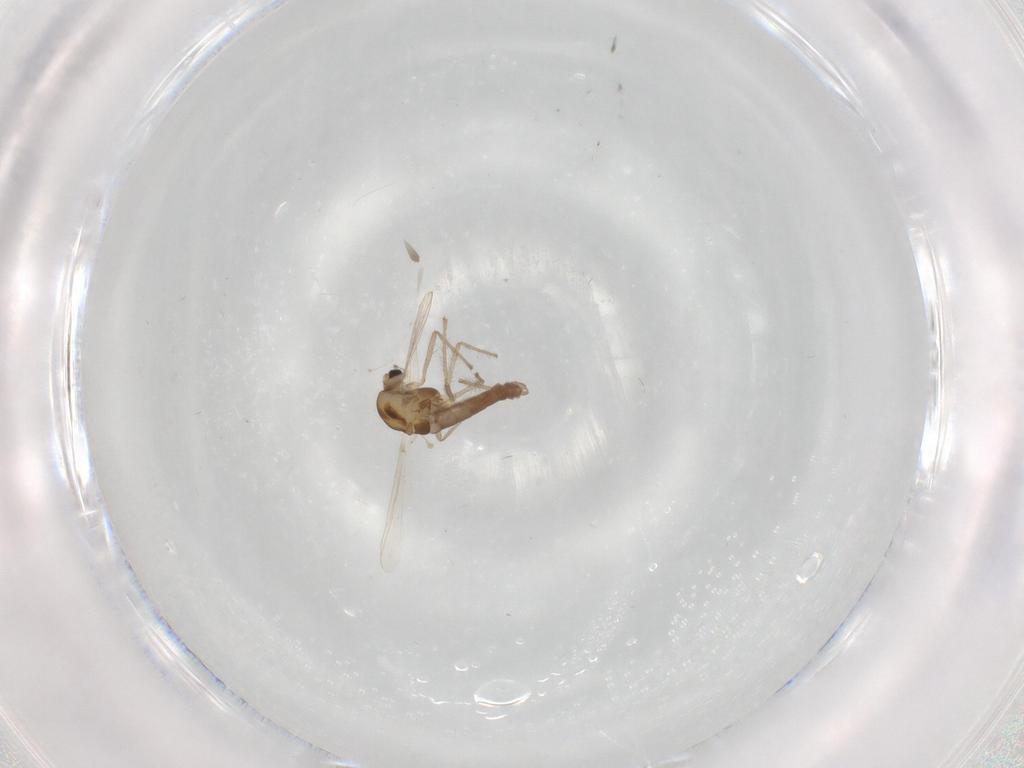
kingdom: Animalia
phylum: Arthropoda
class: Insecta
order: Diptera
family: Chironomidae
